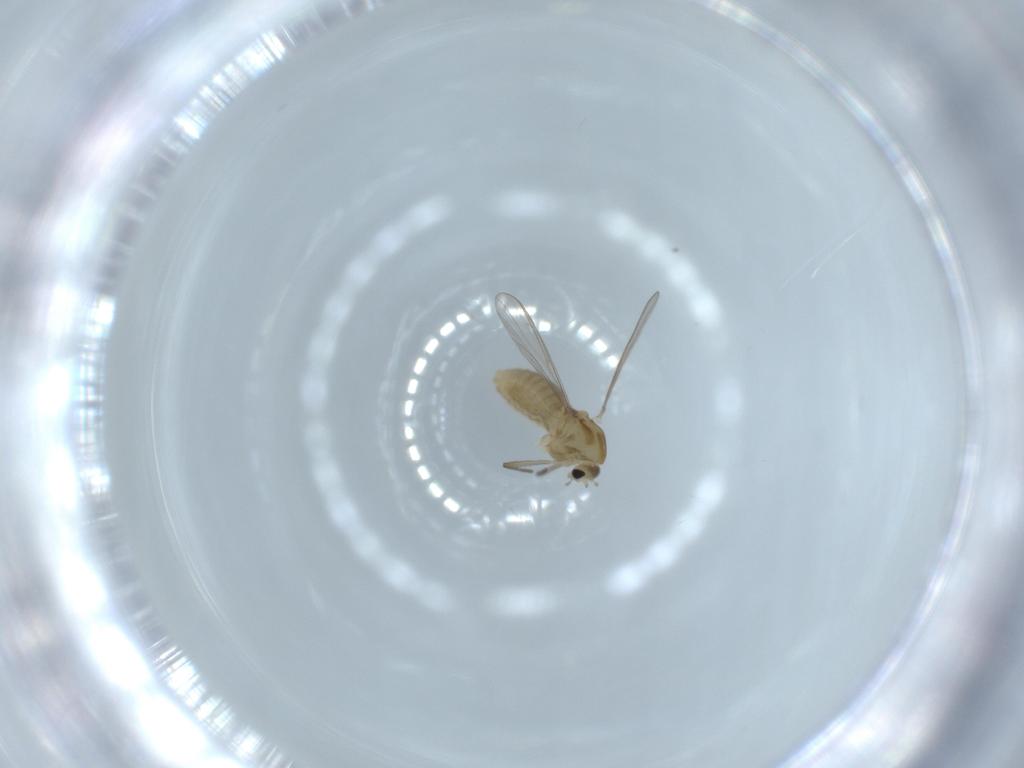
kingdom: Animalia
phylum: Arthropoda
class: Insecta
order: Diptera
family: Chironomidae
